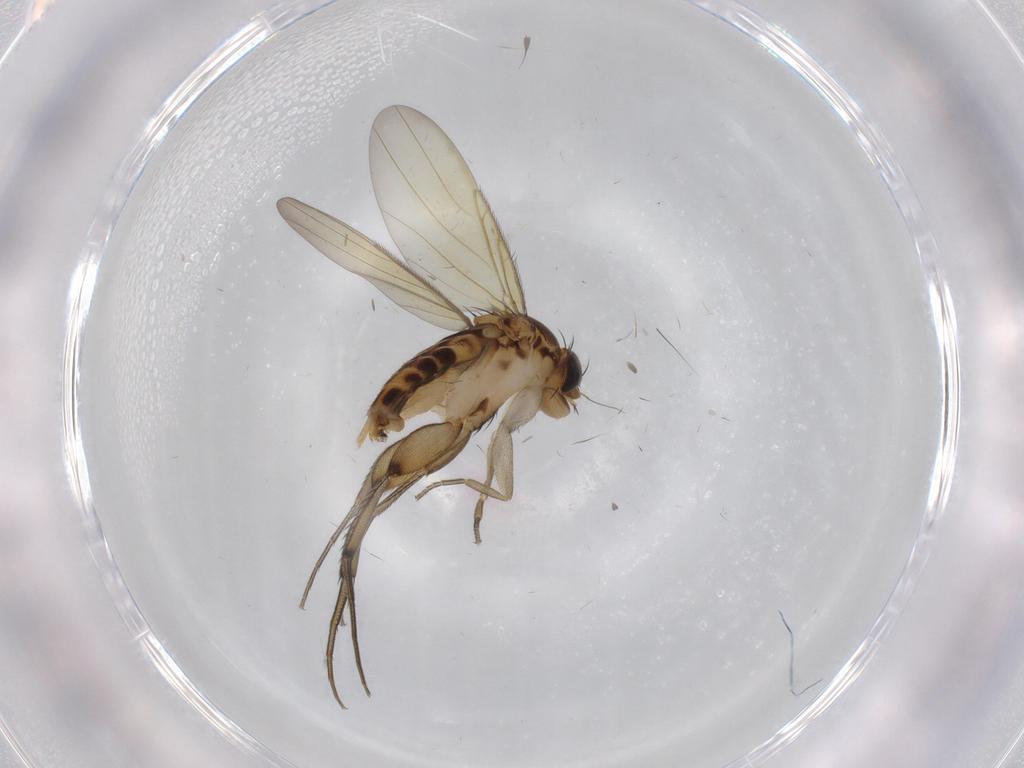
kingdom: Animalia
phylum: Arthropoda
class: Insecta
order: Diptera
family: Phoridae
